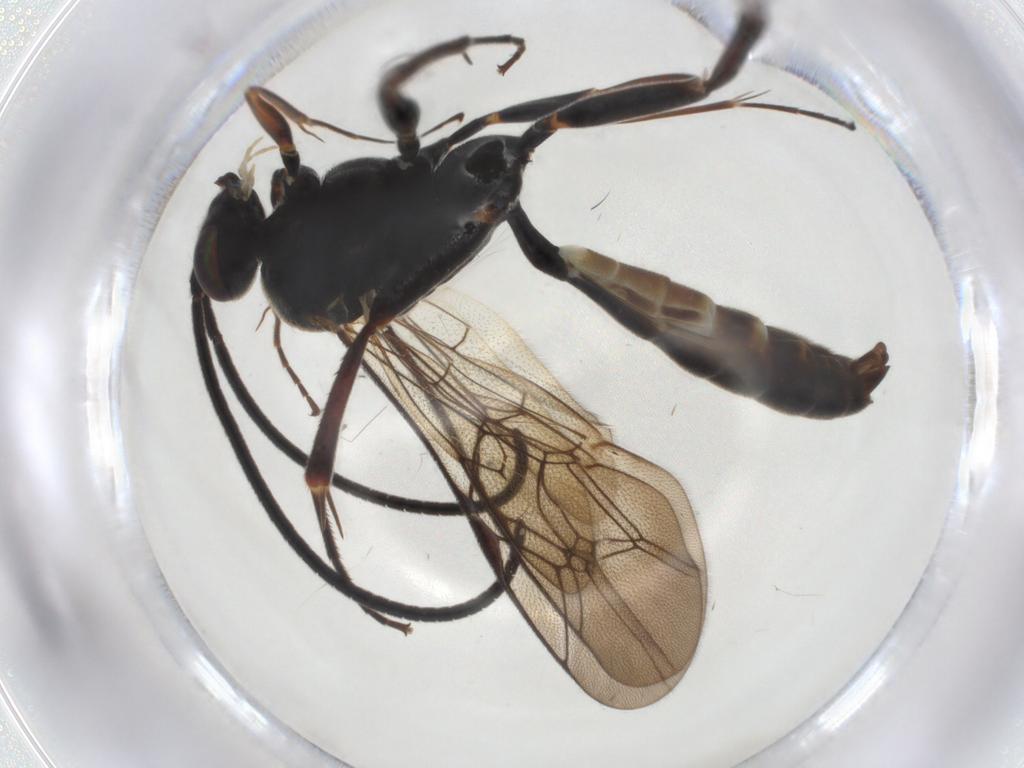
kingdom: Animalia
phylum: Arthropoda
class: Insecta
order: Hymenoptera
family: Ichneumonidae
